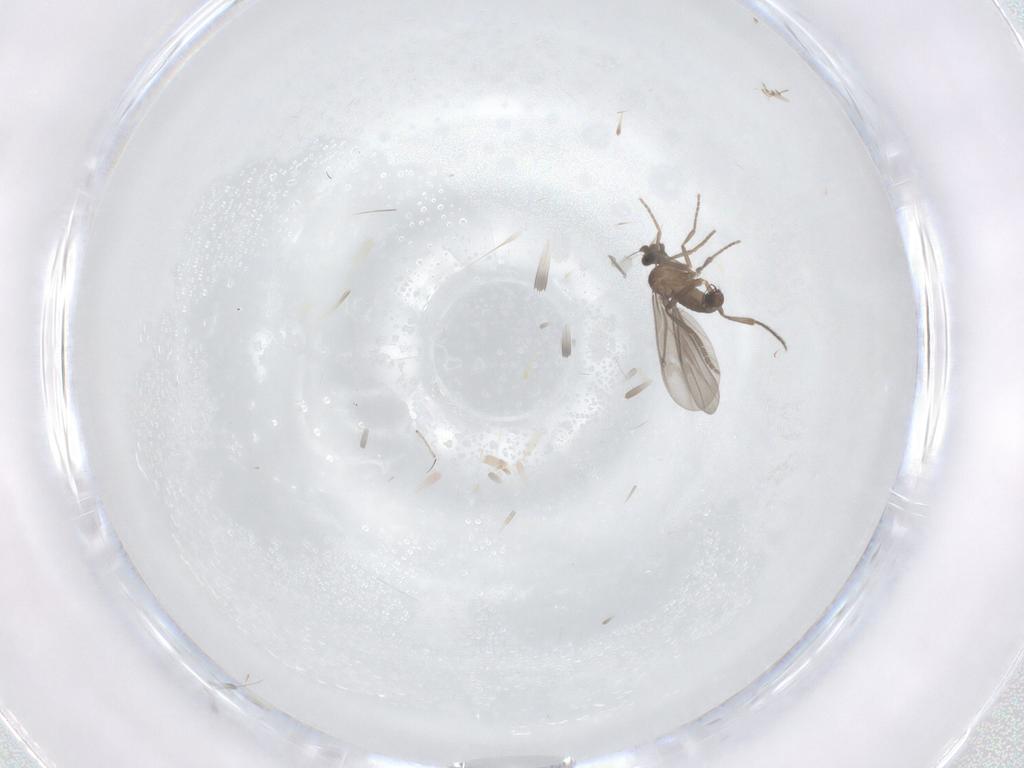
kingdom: Animalia
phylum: Arthropoda
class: Insecta
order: Diptera
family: Phoridae
